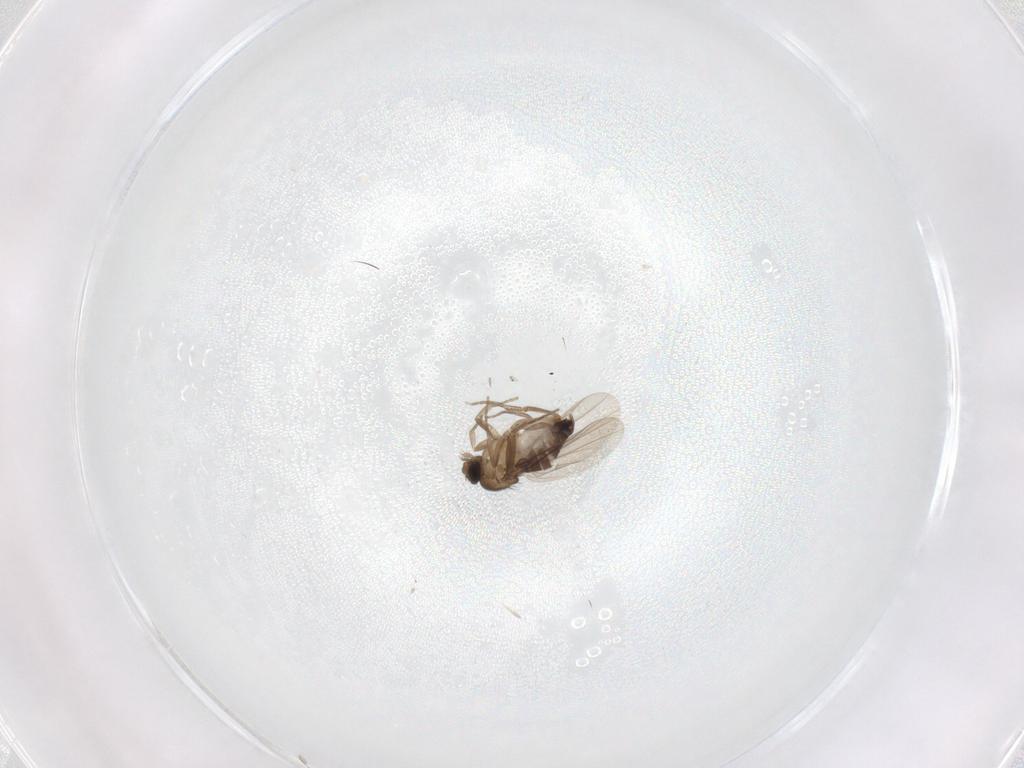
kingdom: Animalia
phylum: Arthropoda
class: Insecta
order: Diptera
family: Phoridae
